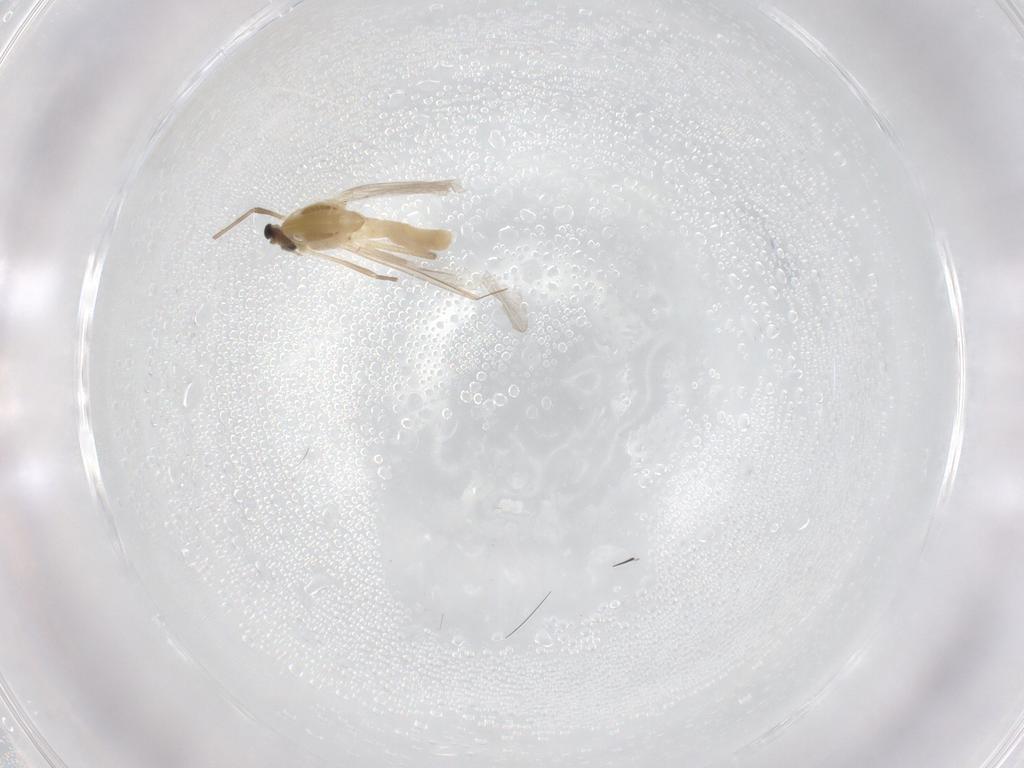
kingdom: Animalia
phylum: Arthropoda
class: Insecta
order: Diptera
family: Chironomidae
